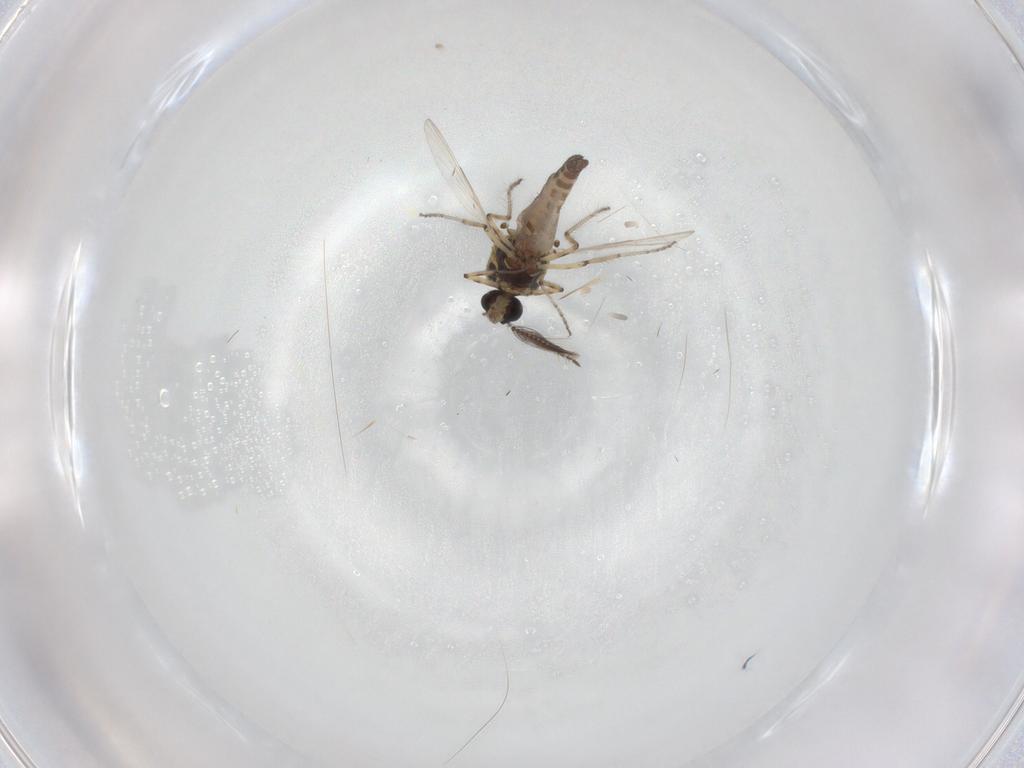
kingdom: Animalia
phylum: Arthropoda
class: Insecta
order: Diptera
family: Ceratopogonidae
